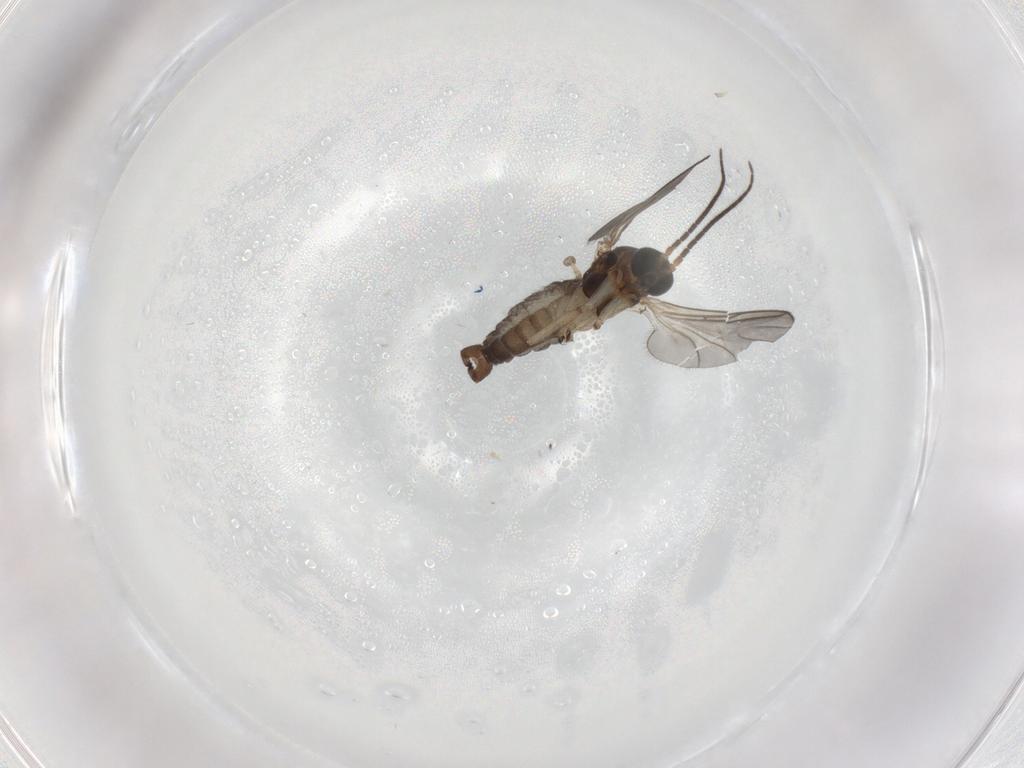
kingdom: Animalia
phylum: Arthropoda
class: Insecta
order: Diptera
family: Sciaridae
